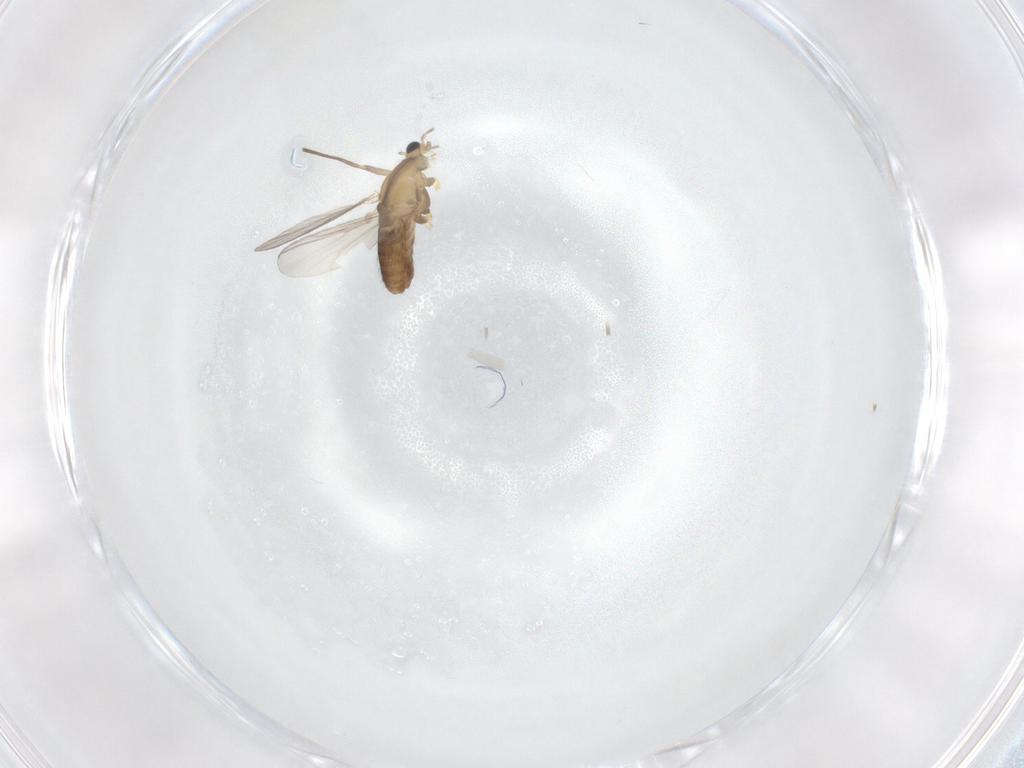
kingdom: Animalia
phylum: Arthropoda
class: Insecta
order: Diptera
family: Chironomidae
